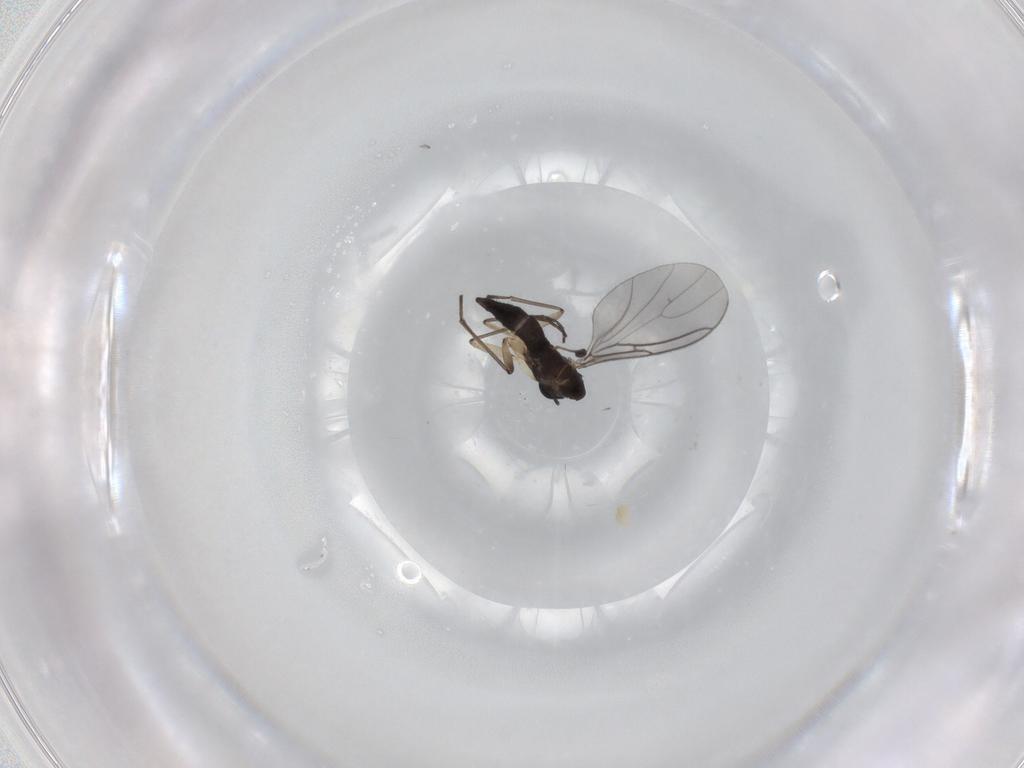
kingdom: Animalia
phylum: Arthropoda
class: Insecta
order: Diptera
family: Sciaridae
